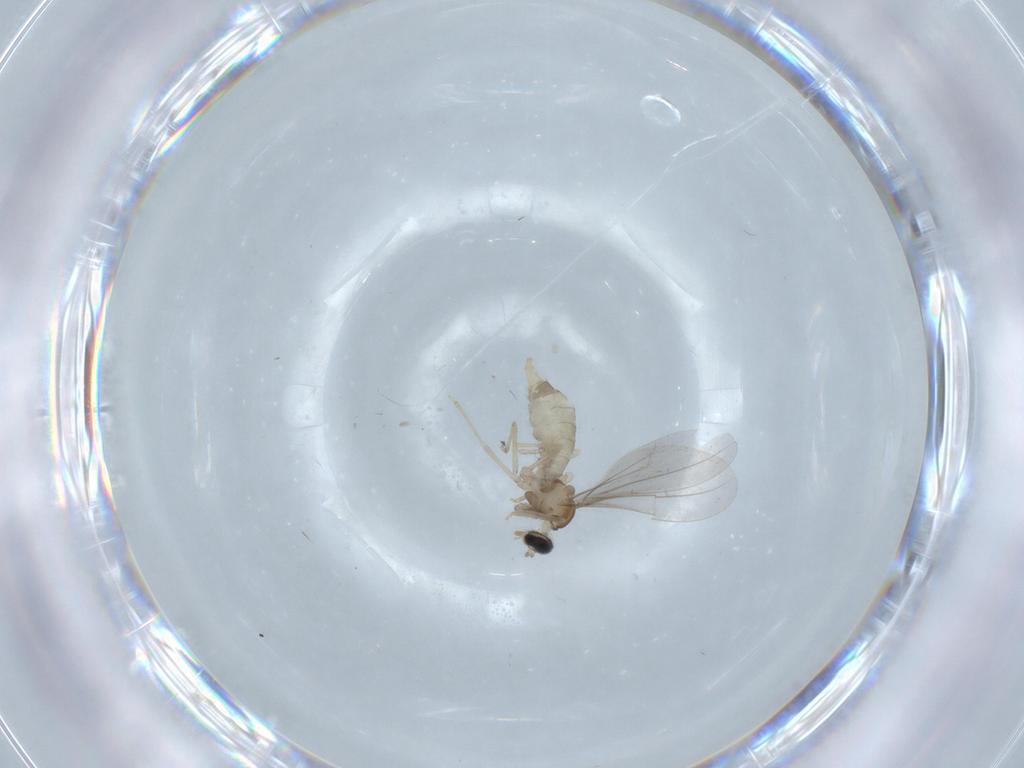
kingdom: Animalia
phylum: Arthropoda
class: Insecta
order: Diptera
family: Cecidomyiidae
